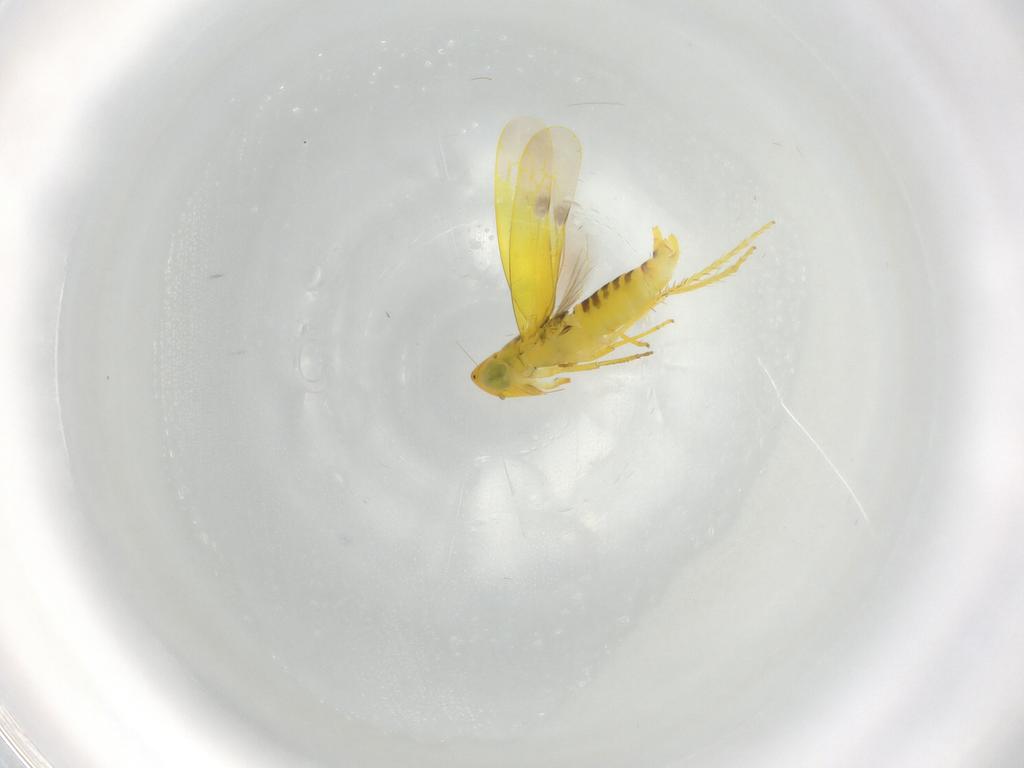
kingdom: Animalia
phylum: Arthropoda
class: Insecta
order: Hemiptera
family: Cicadellidae
